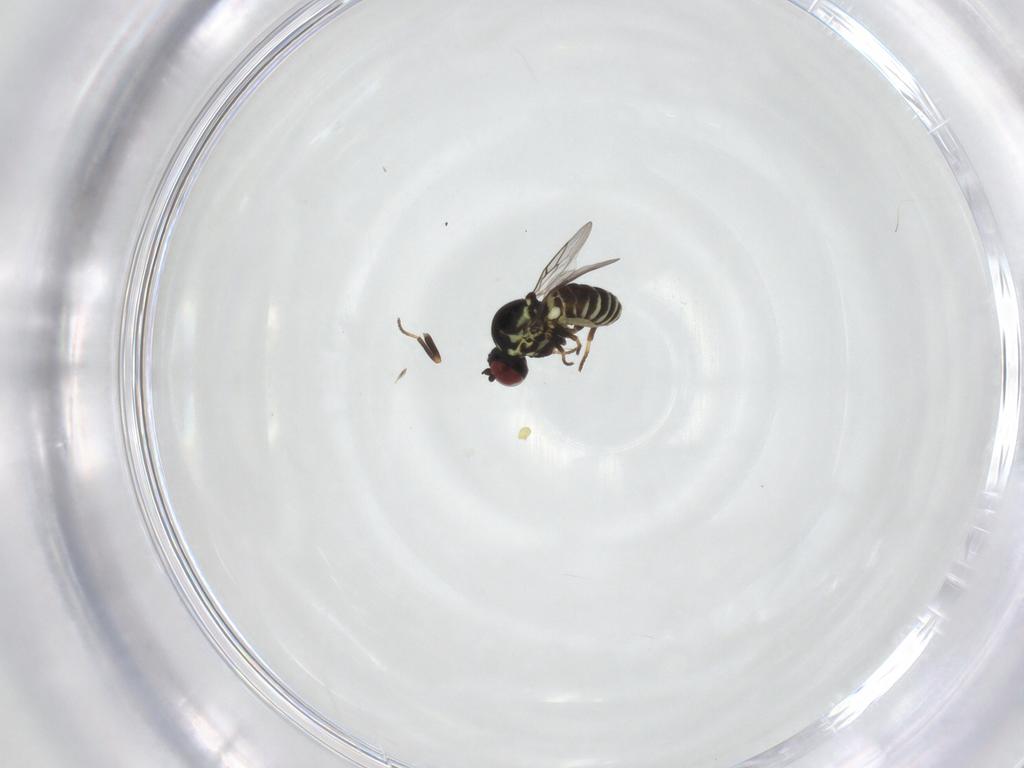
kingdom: Animalia
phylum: Arthropoda
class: Insecta
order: Diptera
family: Mythicomyiidae
